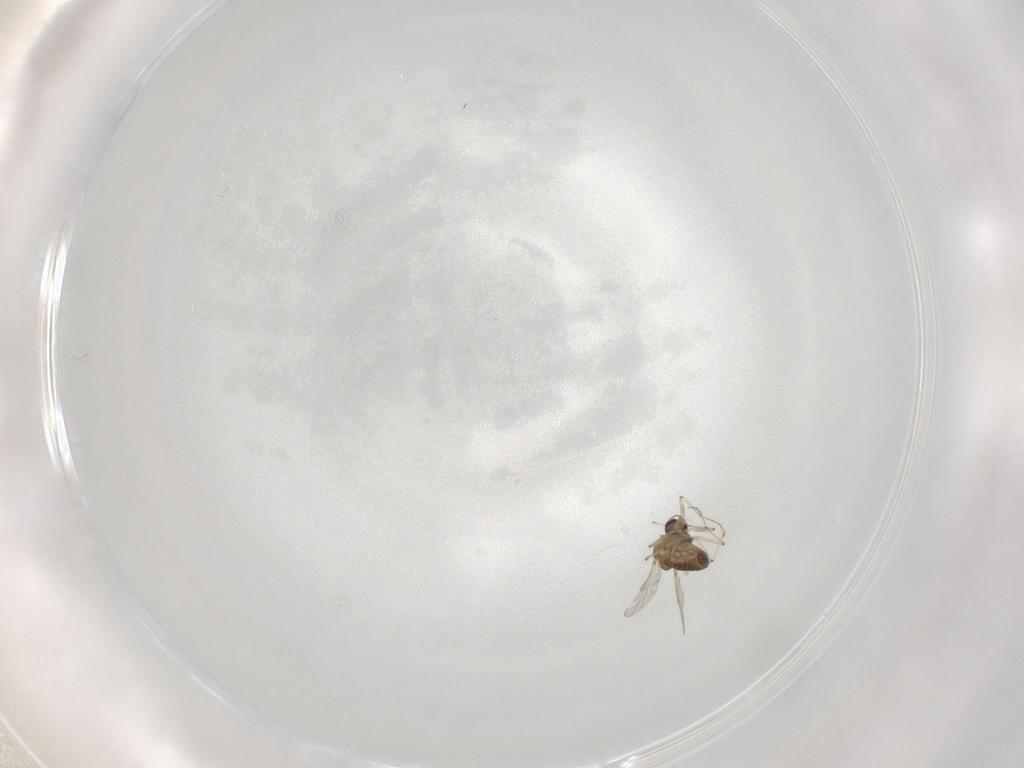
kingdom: Animalia
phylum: Arthropoda
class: Insecta
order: Diptera
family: Chironomidae
